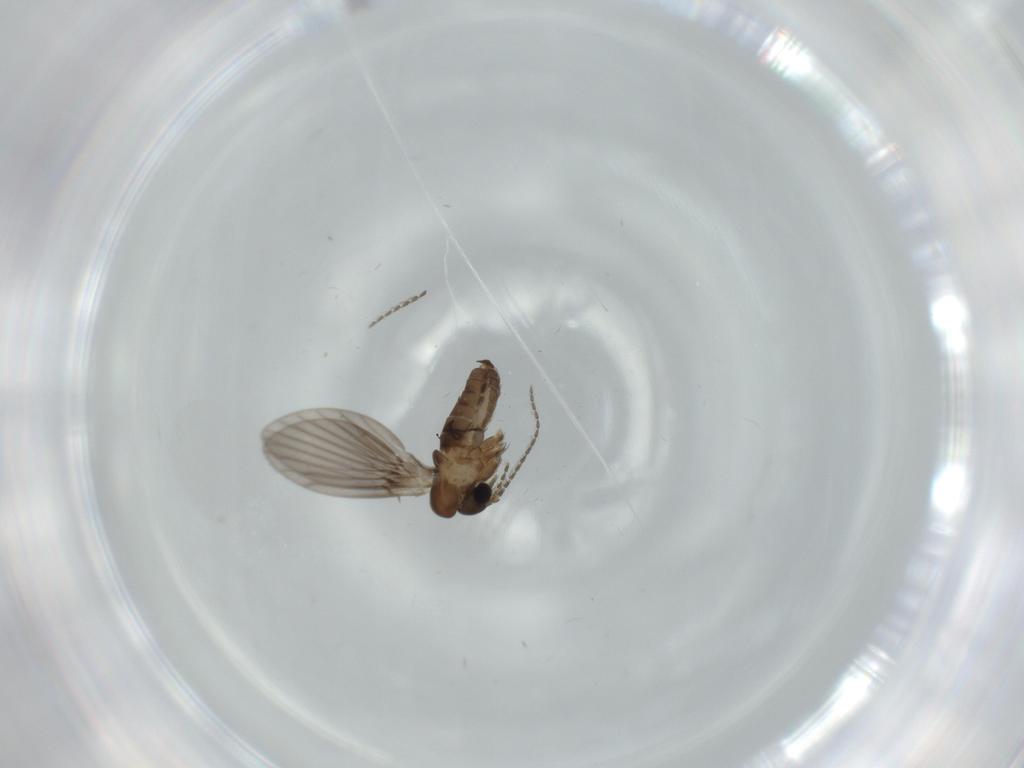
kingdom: Animalia
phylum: Arthropoda
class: Insecta
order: Diptera
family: Psychodidae
